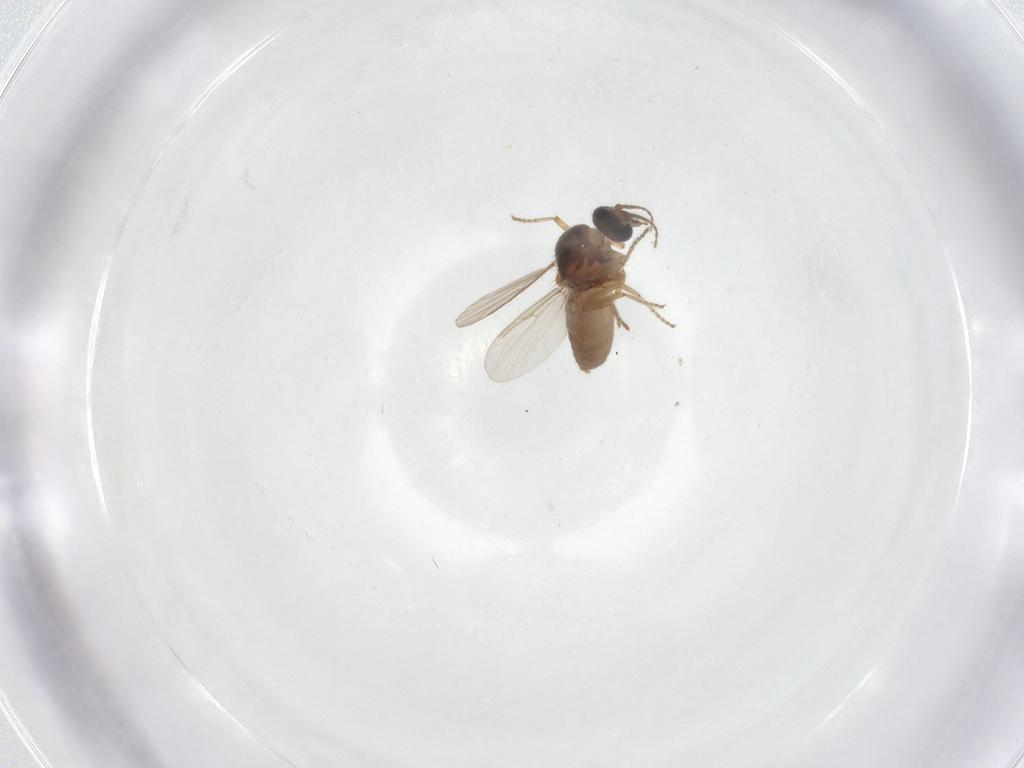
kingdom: Animalia
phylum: Arthropoda
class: Insecta
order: Diptera
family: Ceratopogonidae
